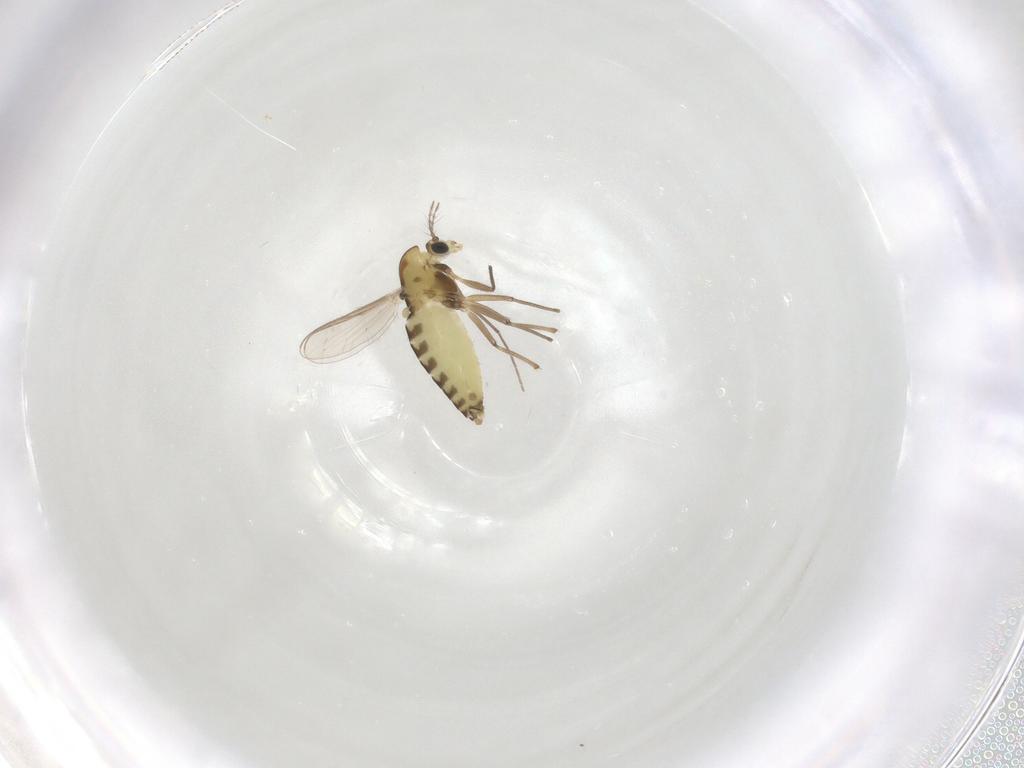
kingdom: Animalia
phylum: Arthropoda
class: Insecta
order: Diptera
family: Chironomidae
